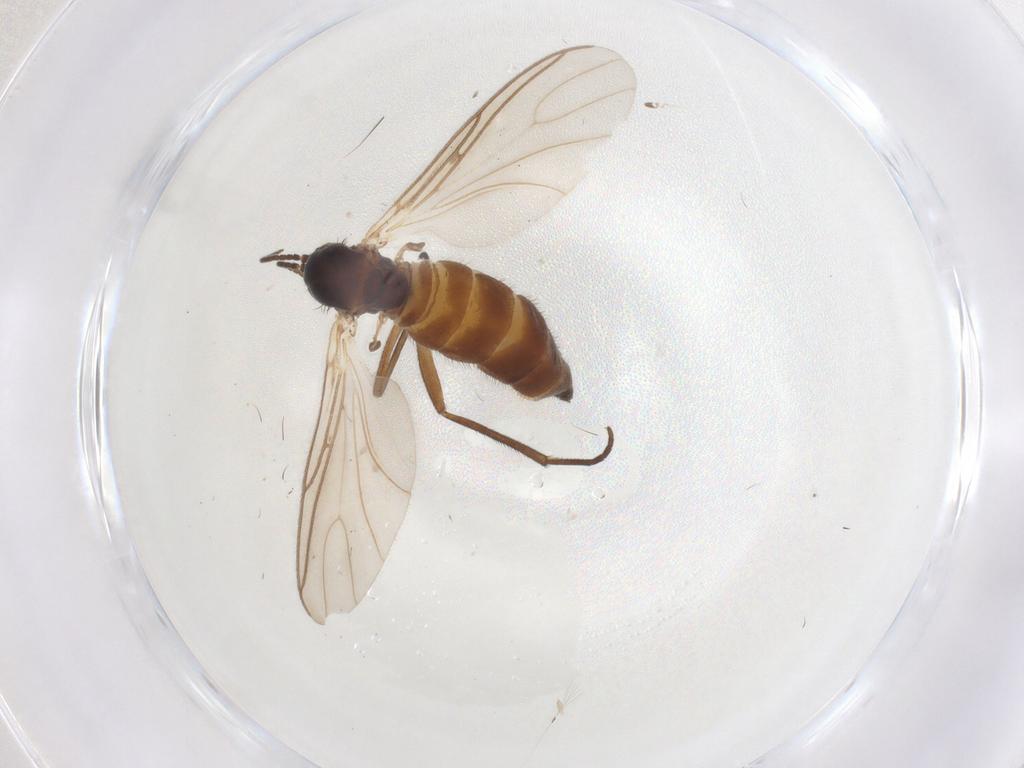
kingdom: Animalia
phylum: Arthropoda
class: Insecta
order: Diptera
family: Sciaridae
